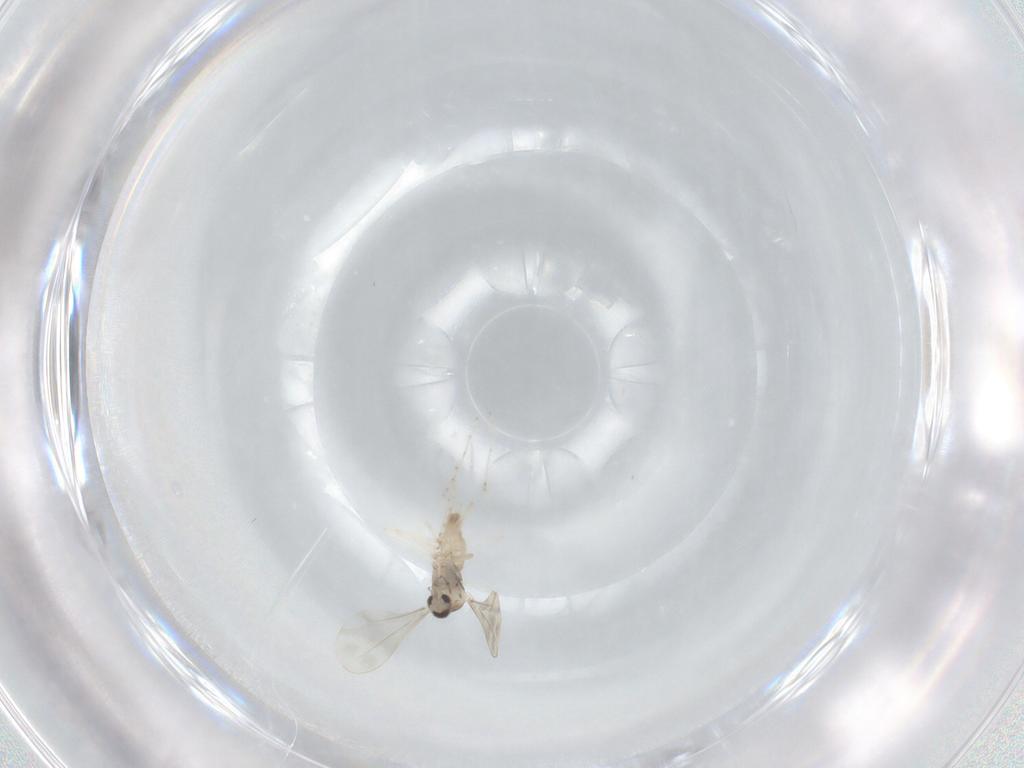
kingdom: Animalia
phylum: Arthropoda
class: Insecta
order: Diptera
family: Cecidomyiidae
